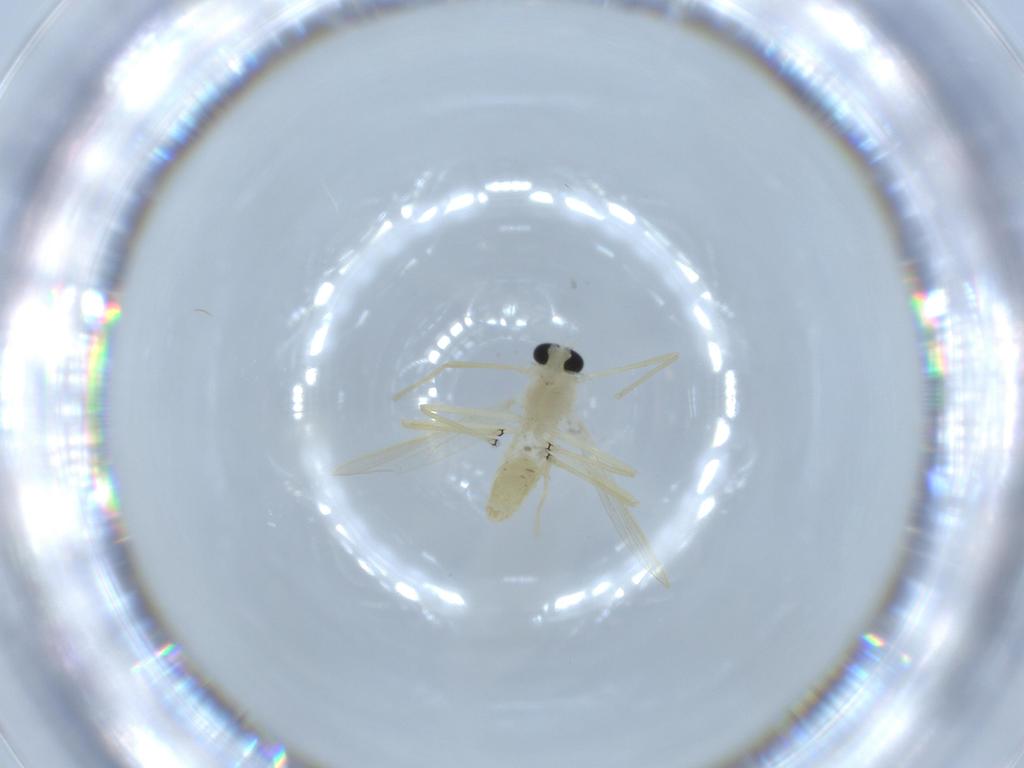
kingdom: Animalia
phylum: Arthropoda
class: Insecta
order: Diptera
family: Chironomidae
